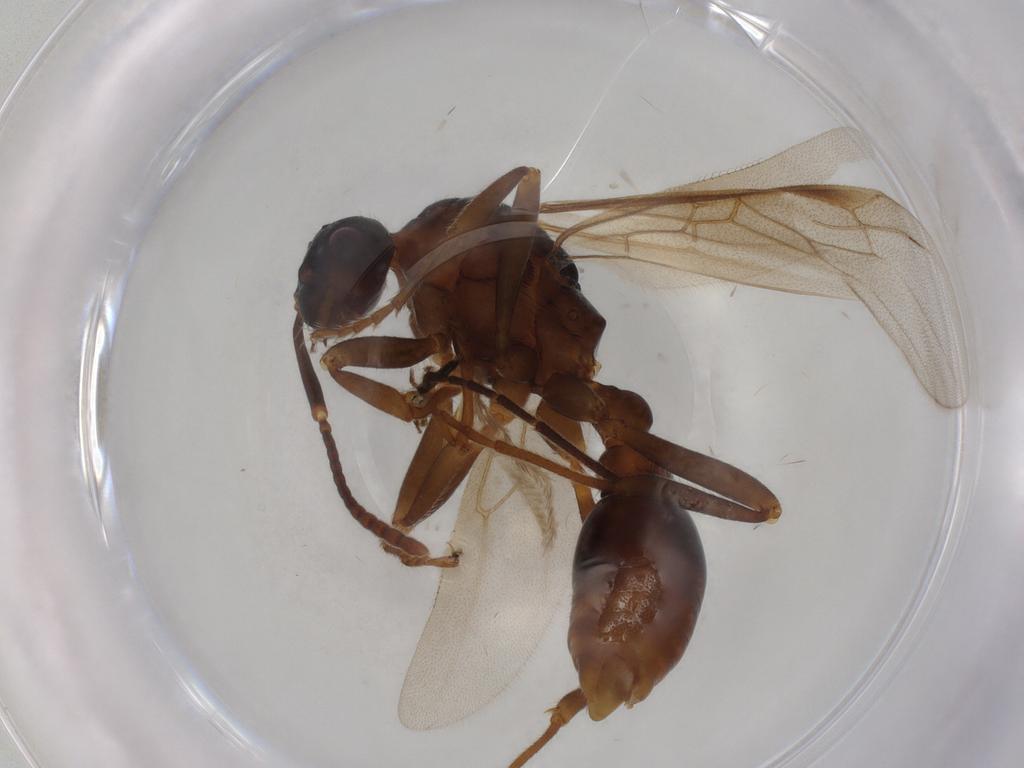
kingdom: Animalia
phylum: Arthropoda
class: Insecta
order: Hymenoptera
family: Formicidae
